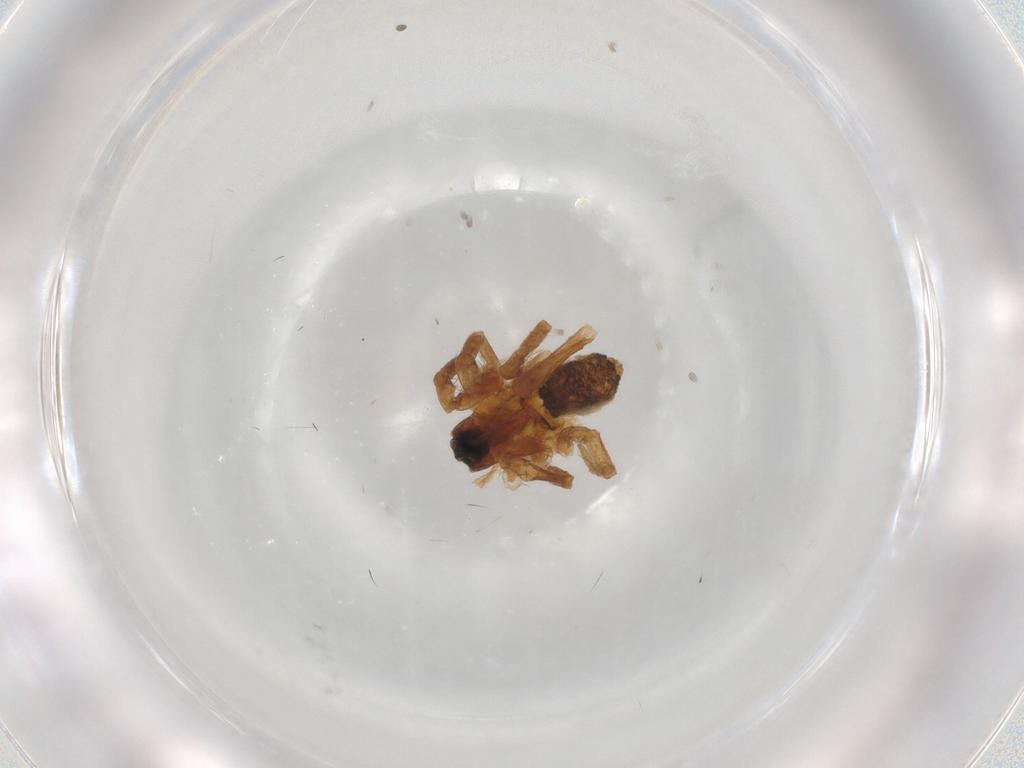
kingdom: Animalia
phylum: Arthropoda
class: Arachnida
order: Araneae
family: Lycosidae
